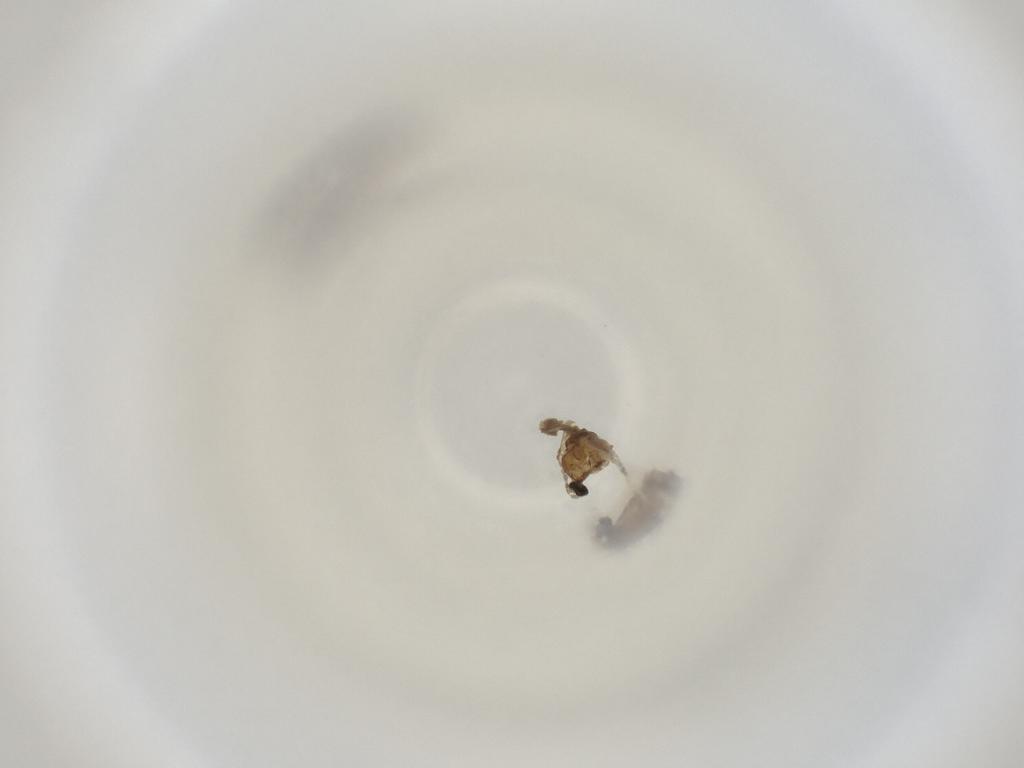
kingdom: Animalia
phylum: Arthropoda
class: Insecta
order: Diptera
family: Cecidomyiidae
